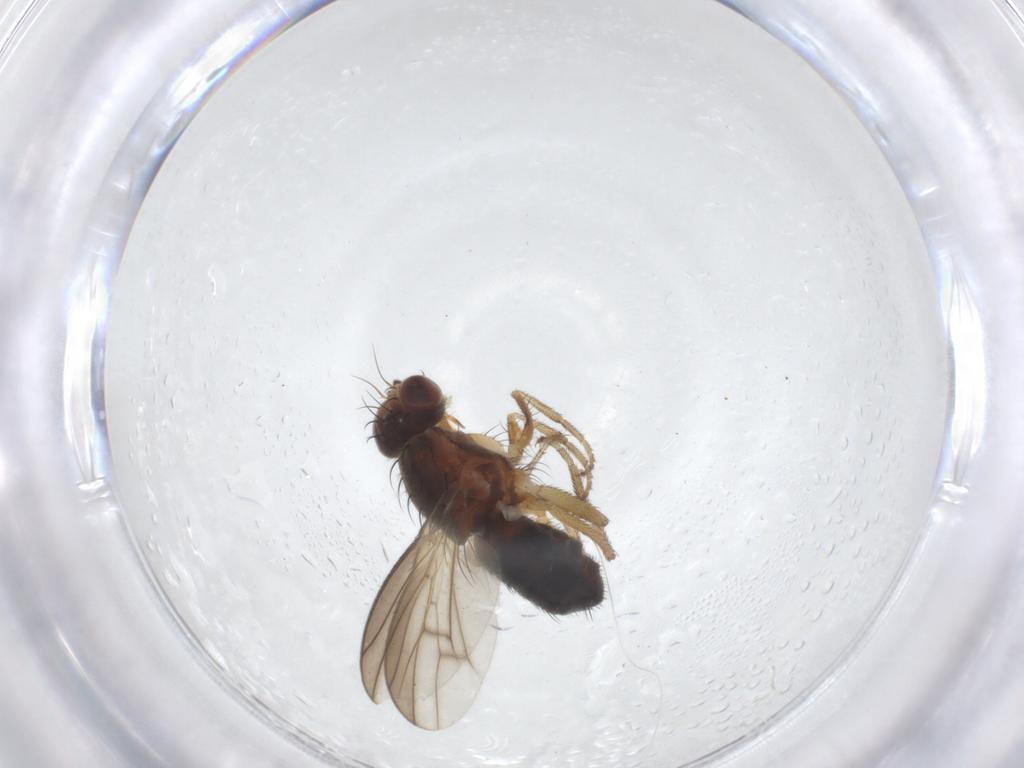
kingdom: Animalia
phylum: Arthropoda
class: Insecta
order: Diptera
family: Heleomyzidae
